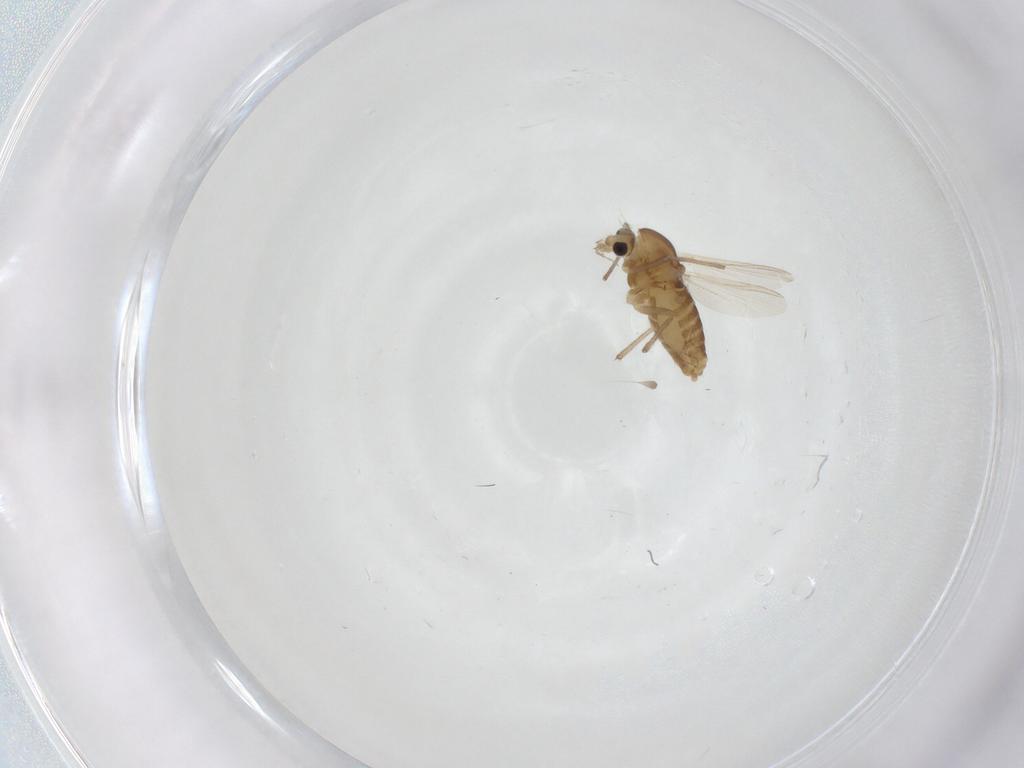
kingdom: Animalia
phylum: Arthropoda
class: Insecta
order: Diptera
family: Chironomidae
